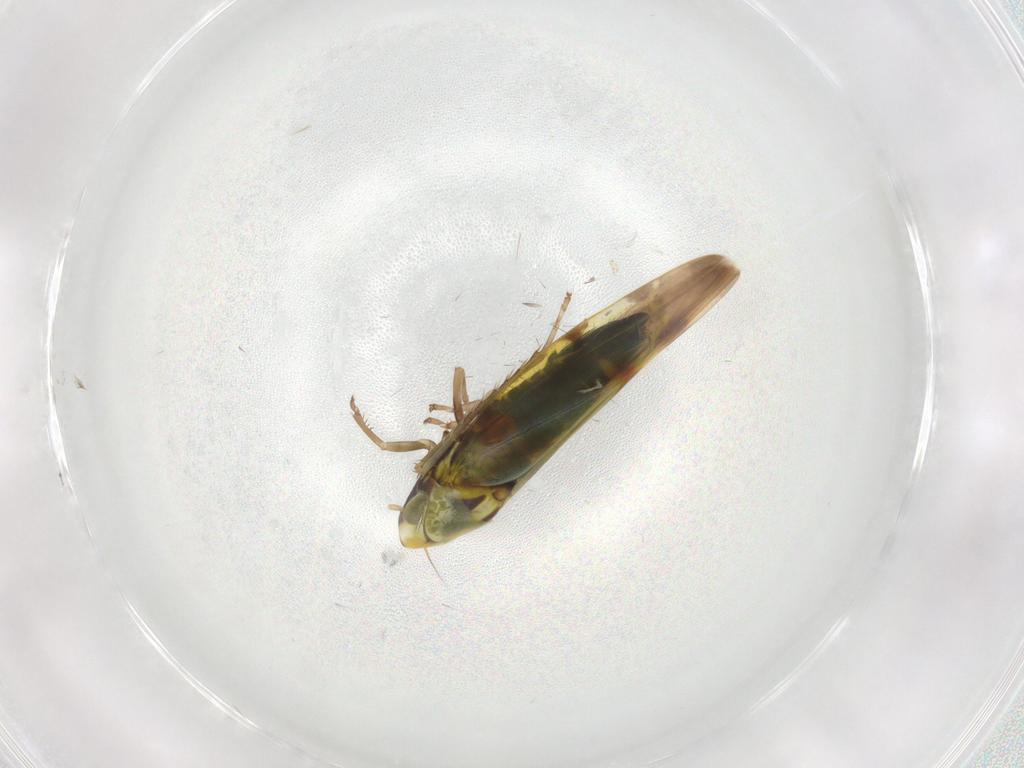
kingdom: Animalia
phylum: Arthropoda
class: Insecta
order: Hemiptera
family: Cicadellidae
